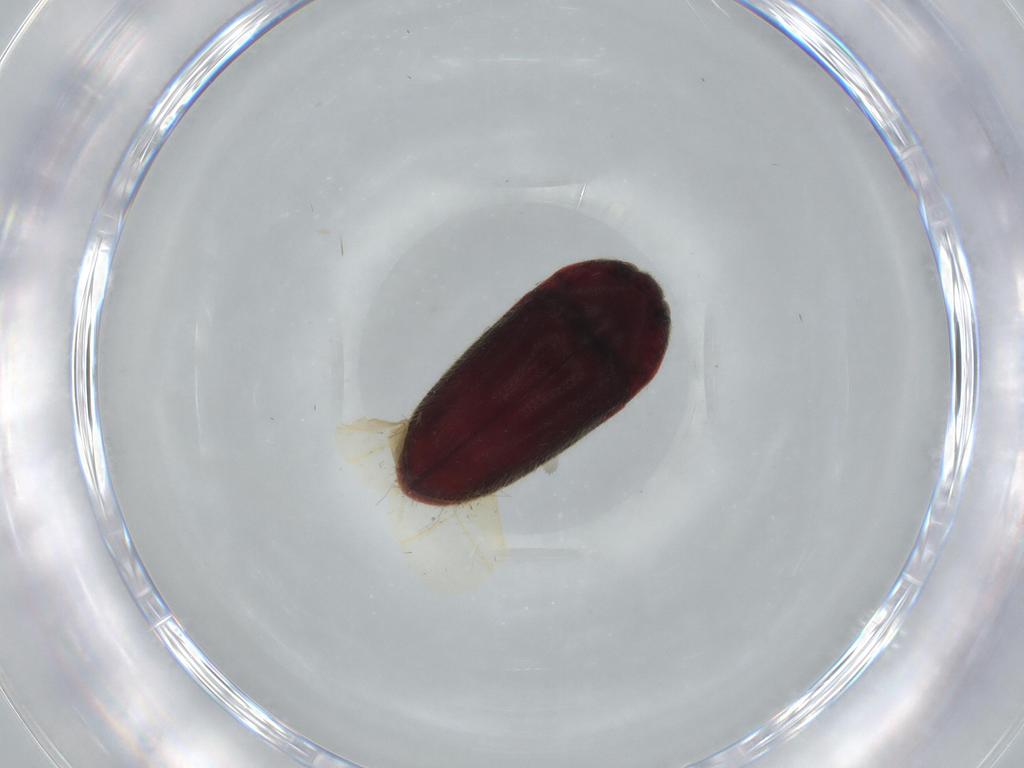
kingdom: Animalia
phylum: Arthropoda
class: Insecta
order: Coleoptera
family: Throscidae
